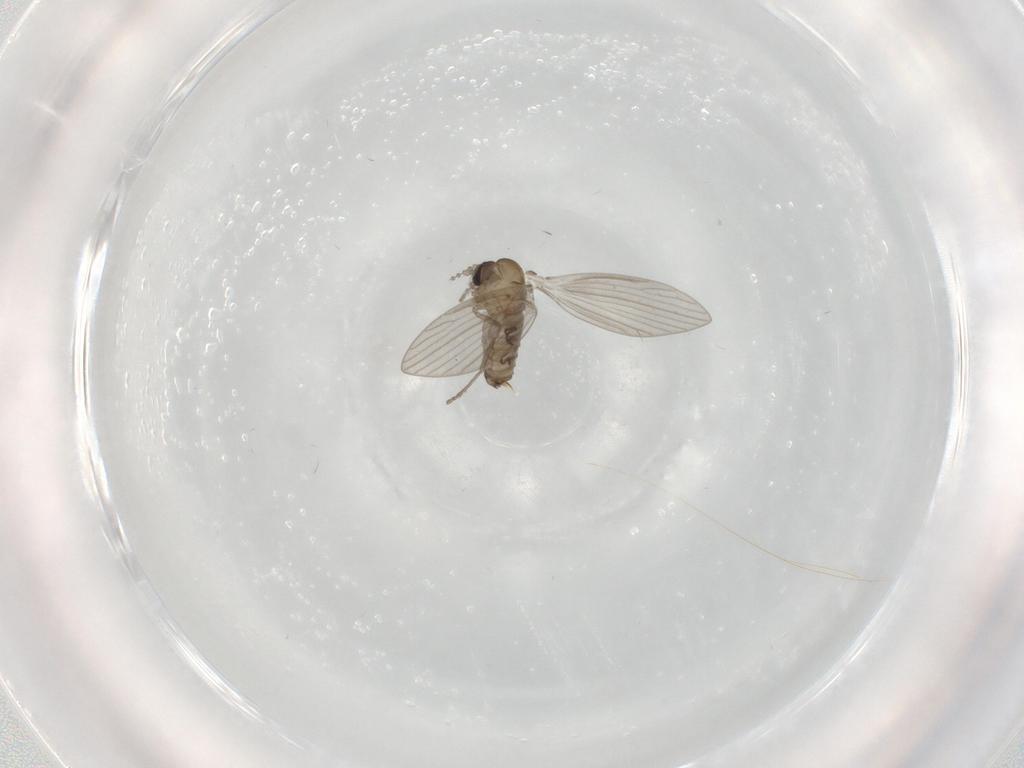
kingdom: Animalia
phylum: Arthropoda
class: Insecta
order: Diptera
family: Psychodidae
